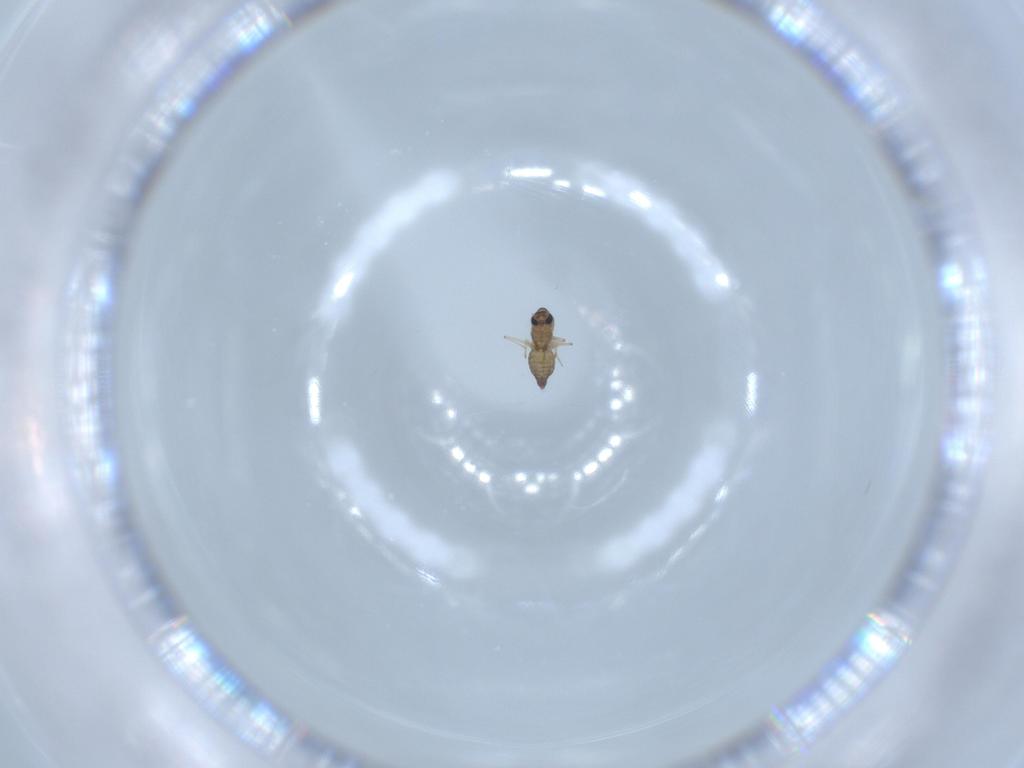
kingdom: Animalia
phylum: Arthropoda
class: Insecta
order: Diptera
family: Chironomidae
